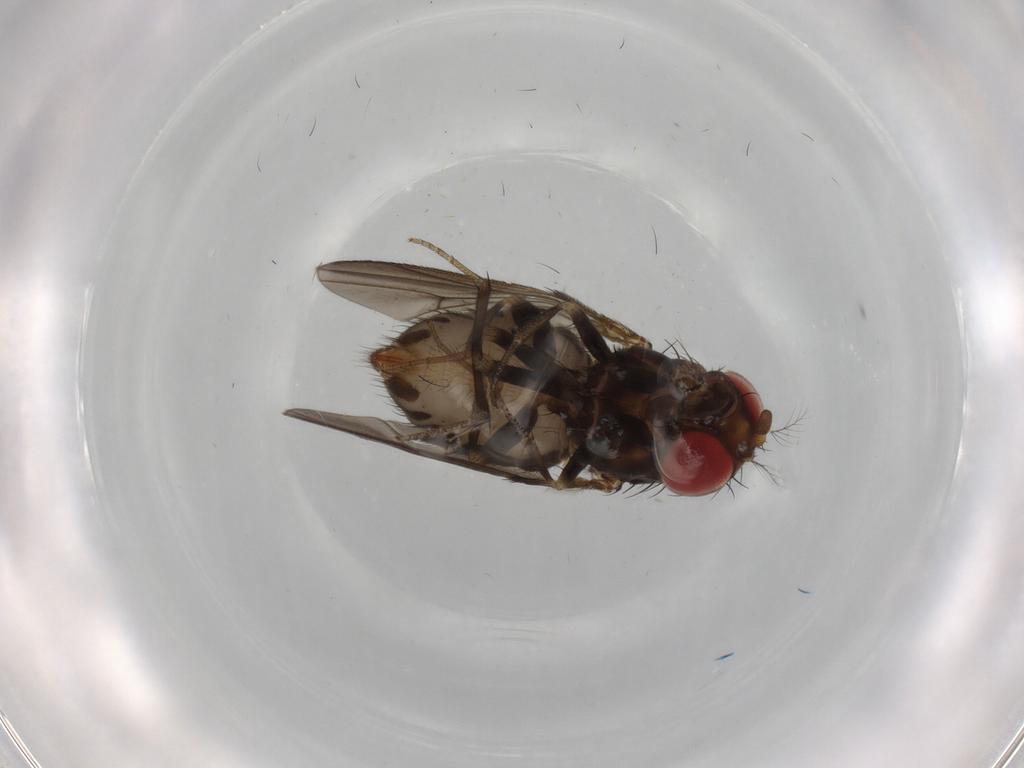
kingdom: Animalia
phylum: Arthropoda
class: Insecta
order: Diptera
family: Drosophilidae
